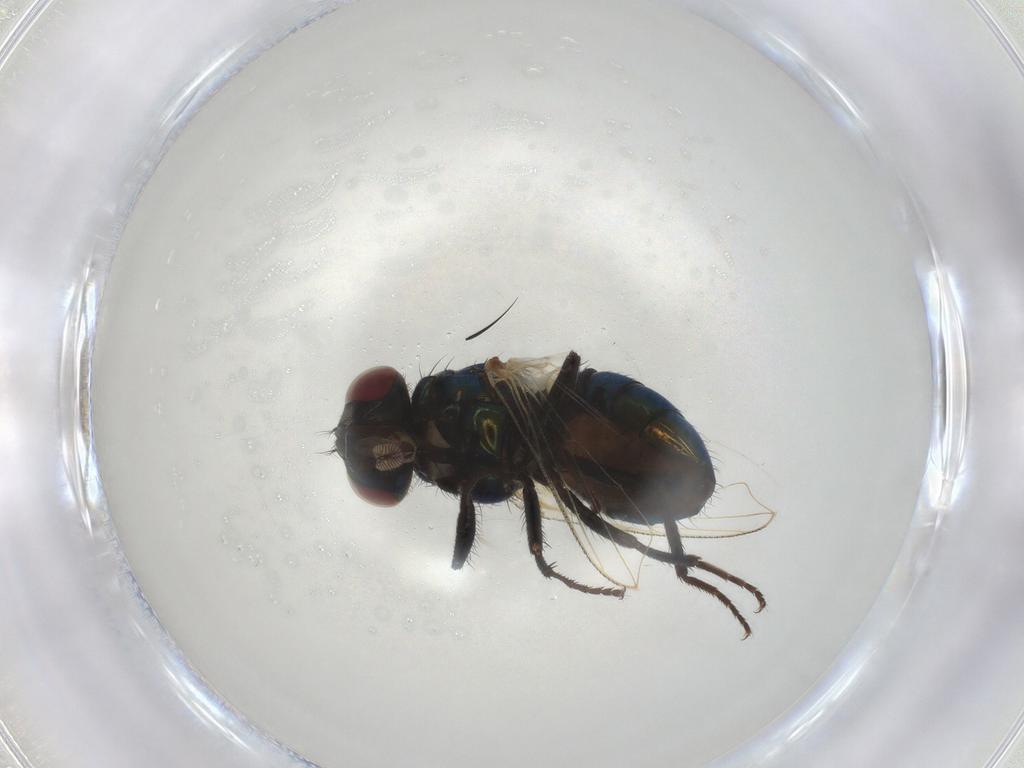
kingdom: Animalia
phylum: Arthropoda
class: Insecta
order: Diptera
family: Muscidae
